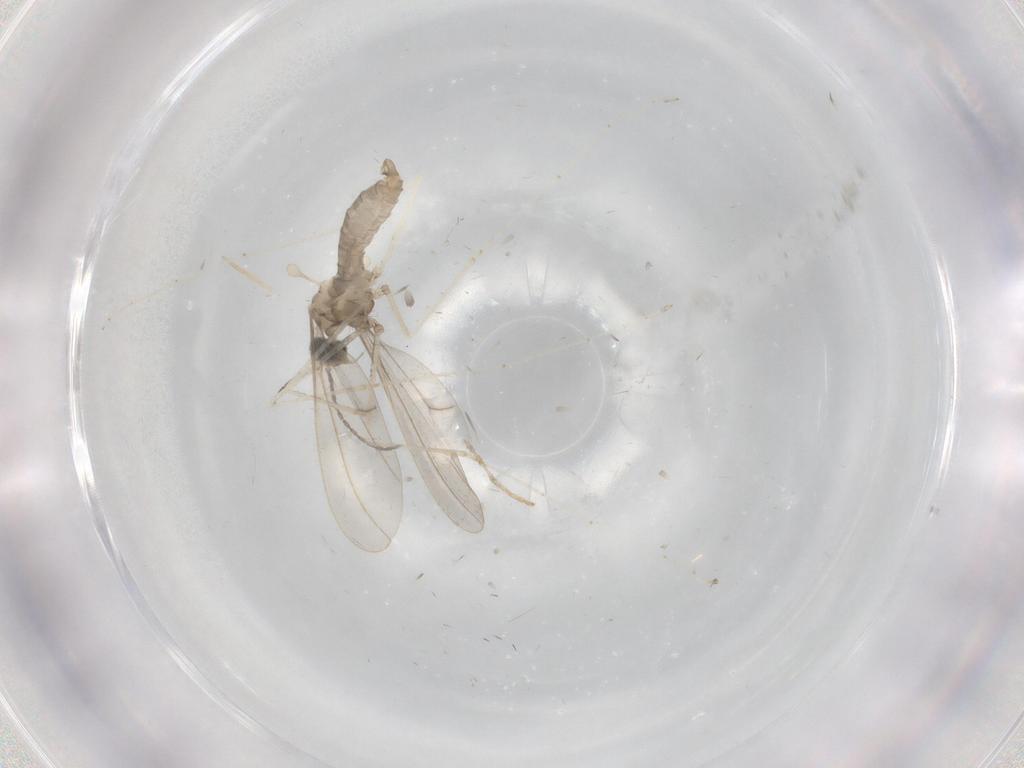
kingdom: Animalia
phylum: Arthropoda
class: Insecta
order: Diptera
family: Cecidomyiidae
